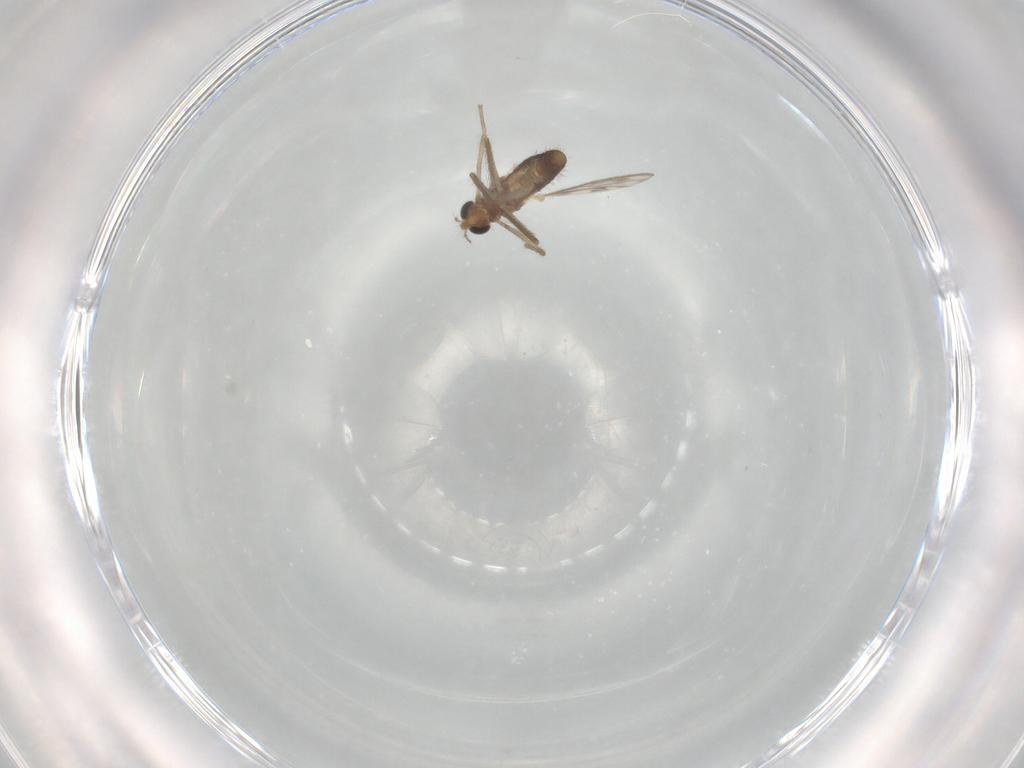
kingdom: Animalia
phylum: Arthropoda
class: Insecta
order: Diptera
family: Chironomidae
